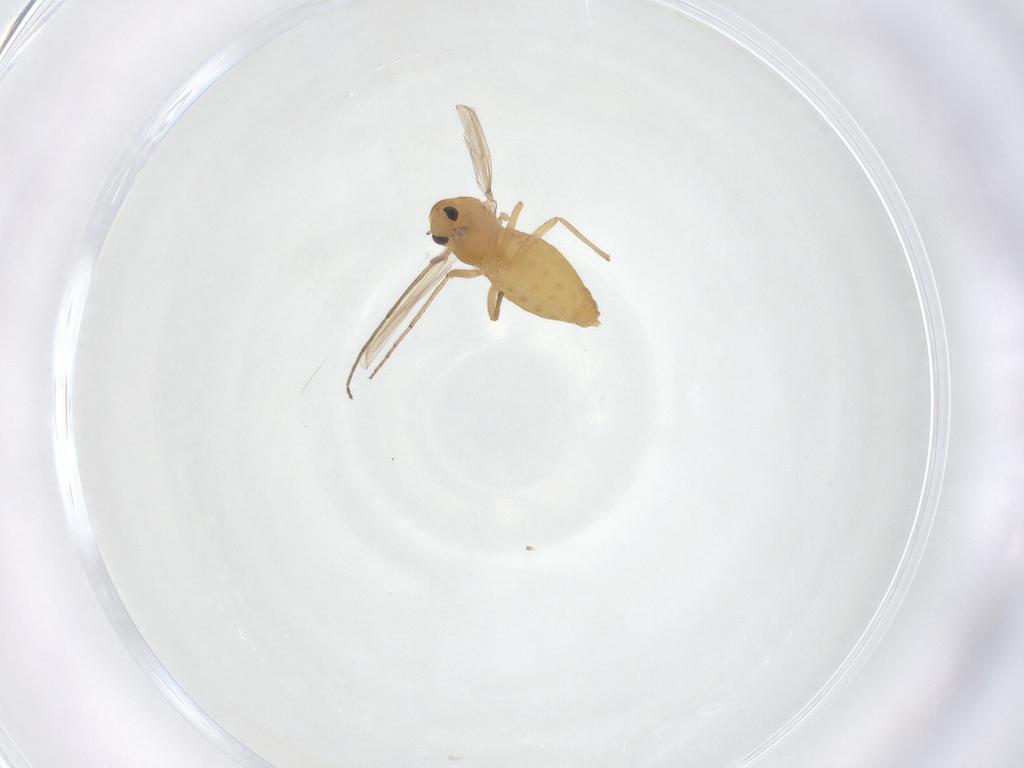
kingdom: Animalia
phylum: Arthropoda
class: Insecta
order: Diptera
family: Chironomidae
